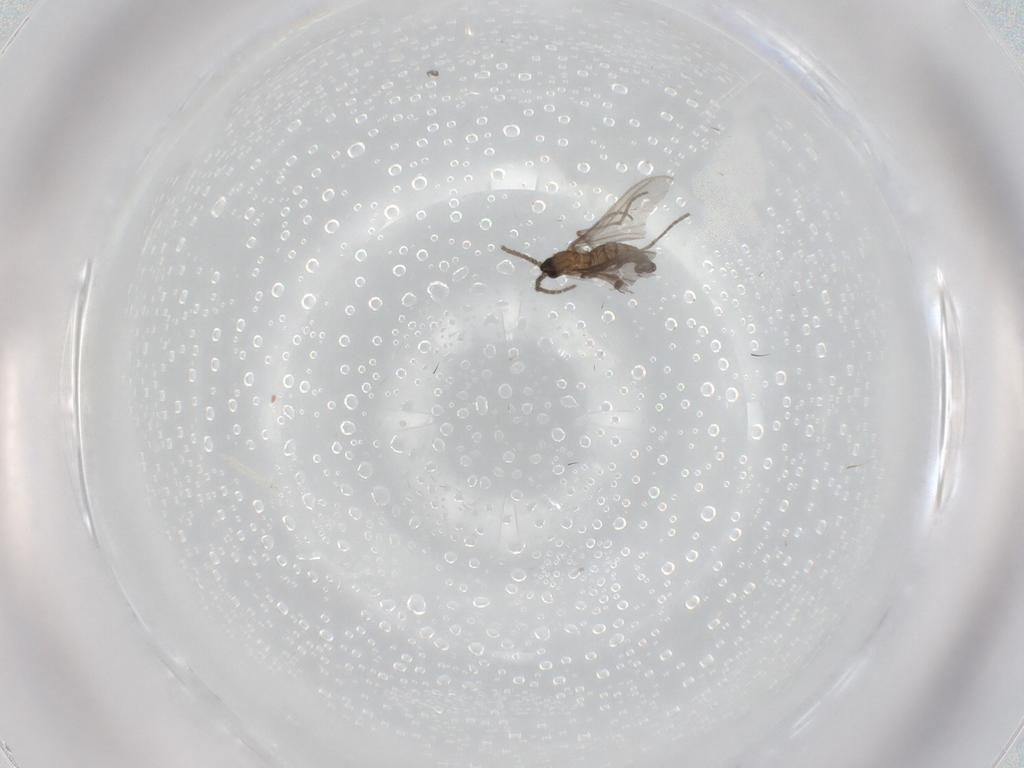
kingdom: Animalia
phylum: Arthropoda
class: Insecta
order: Diptera
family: Sciaridae
